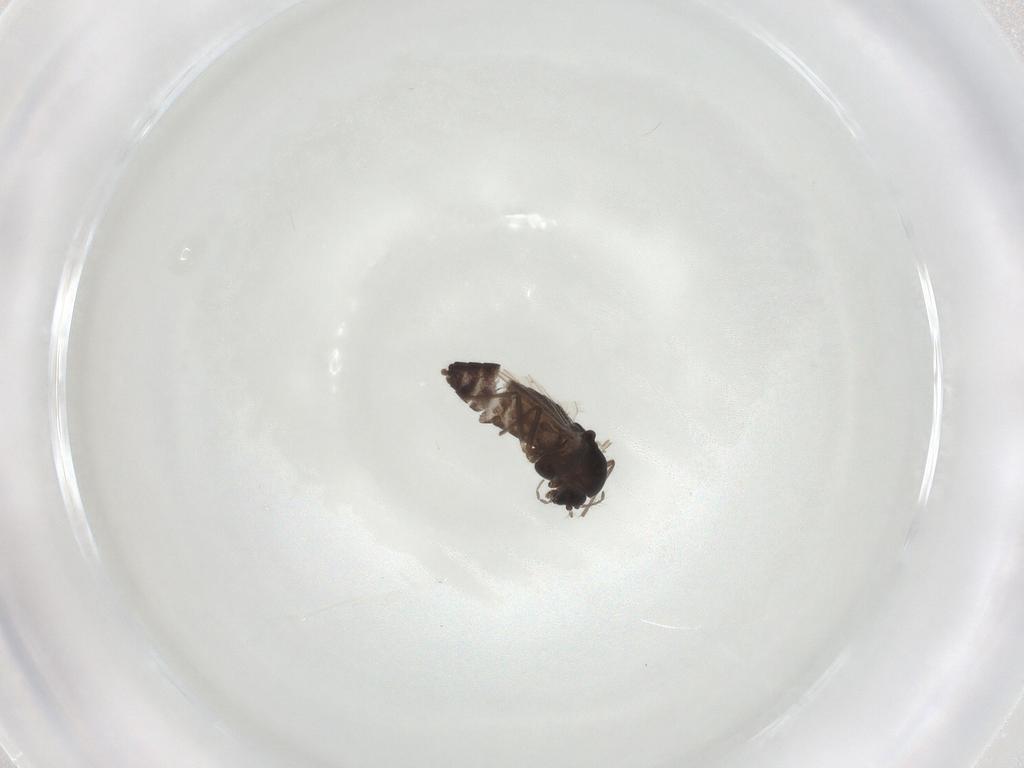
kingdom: Animalia
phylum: Arthropoda
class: Insecta
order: Diptera
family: Chironomidae
